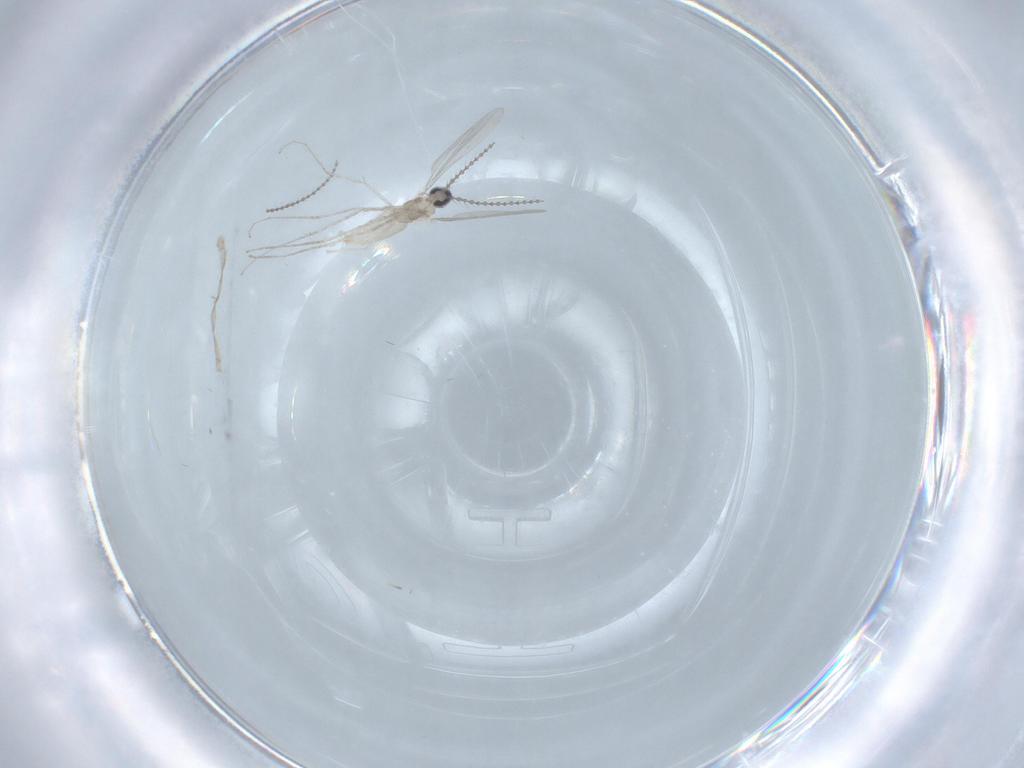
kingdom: Animalia
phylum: Arthropoda
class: Insecta
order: Diptera
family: Cecidomyiidae
